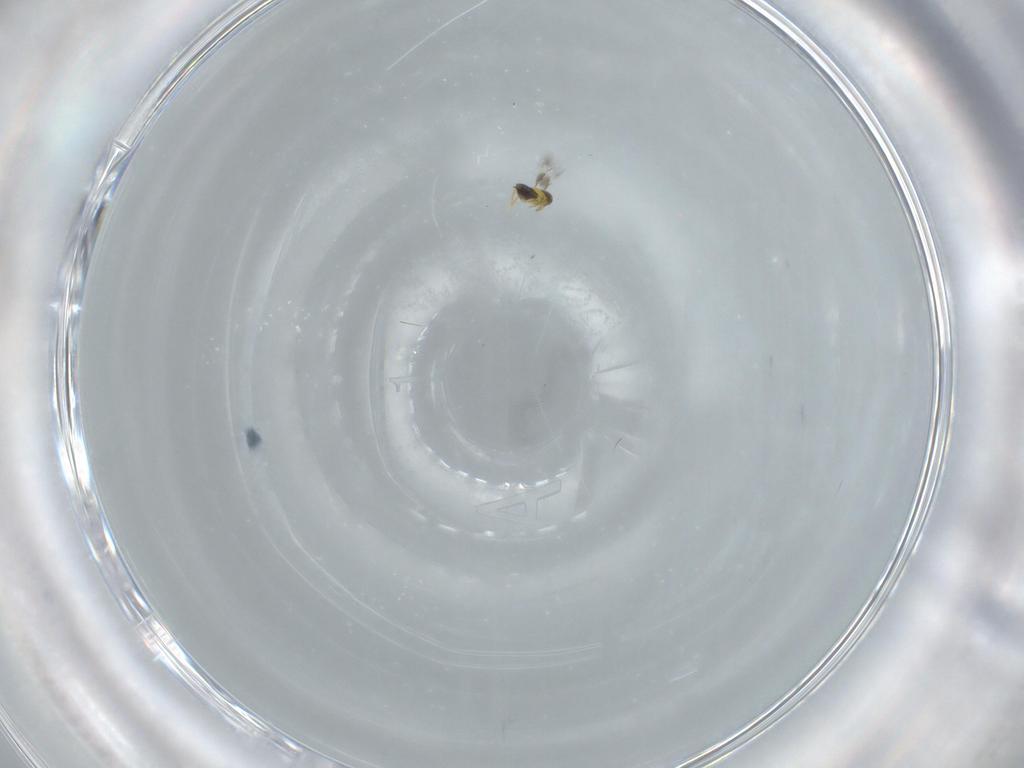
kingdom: Animalia
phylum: Arthropoda
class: Insecta
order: Hymenoptera
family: Signiphoridae
